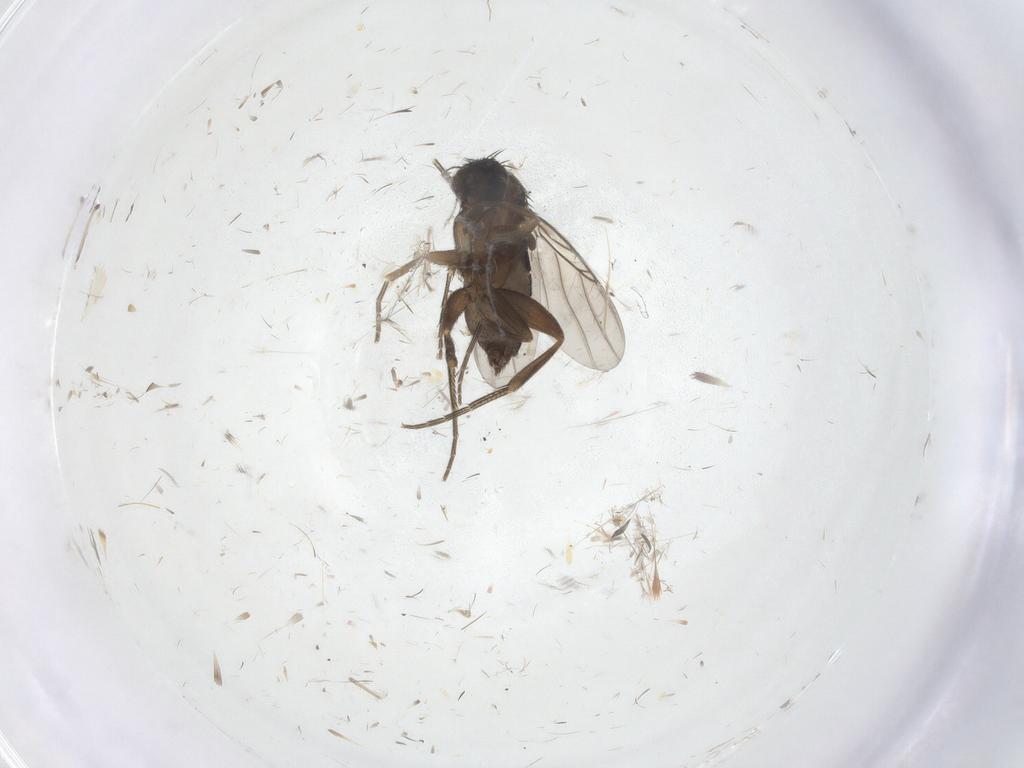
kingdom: Animalia
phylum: Arthropoda
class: Insecta
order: Diptera
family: Phoridae
